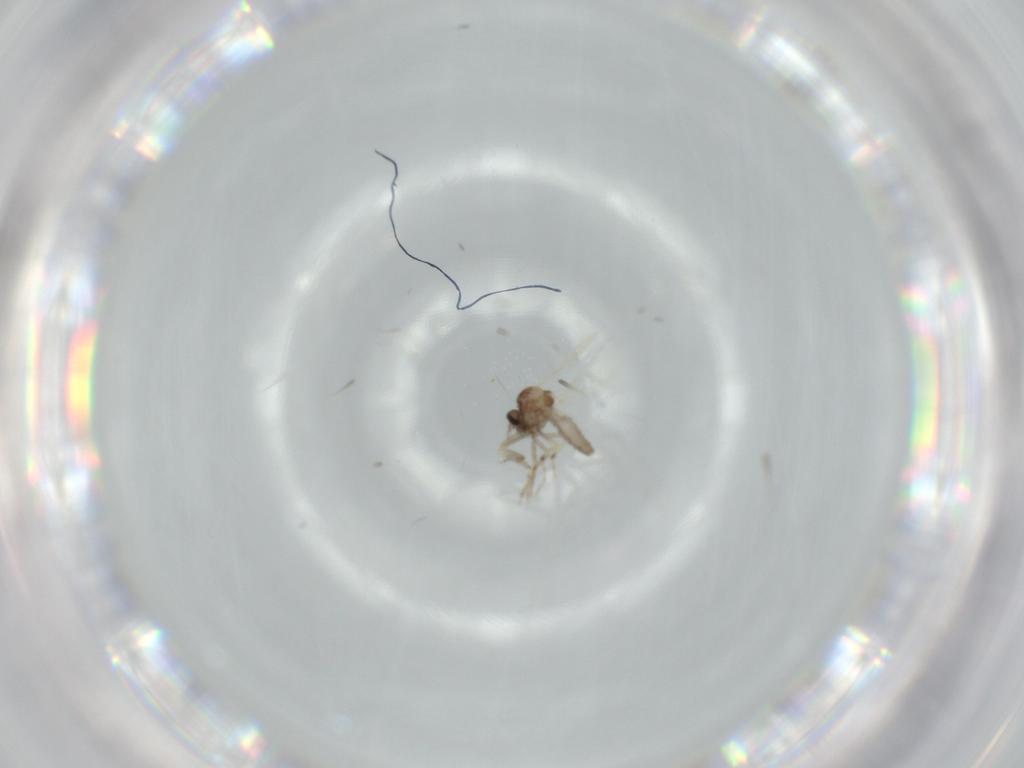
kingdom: Animalia
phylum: Arthropoda
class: Insecta
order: Diptera
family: Ceratopogonidae
